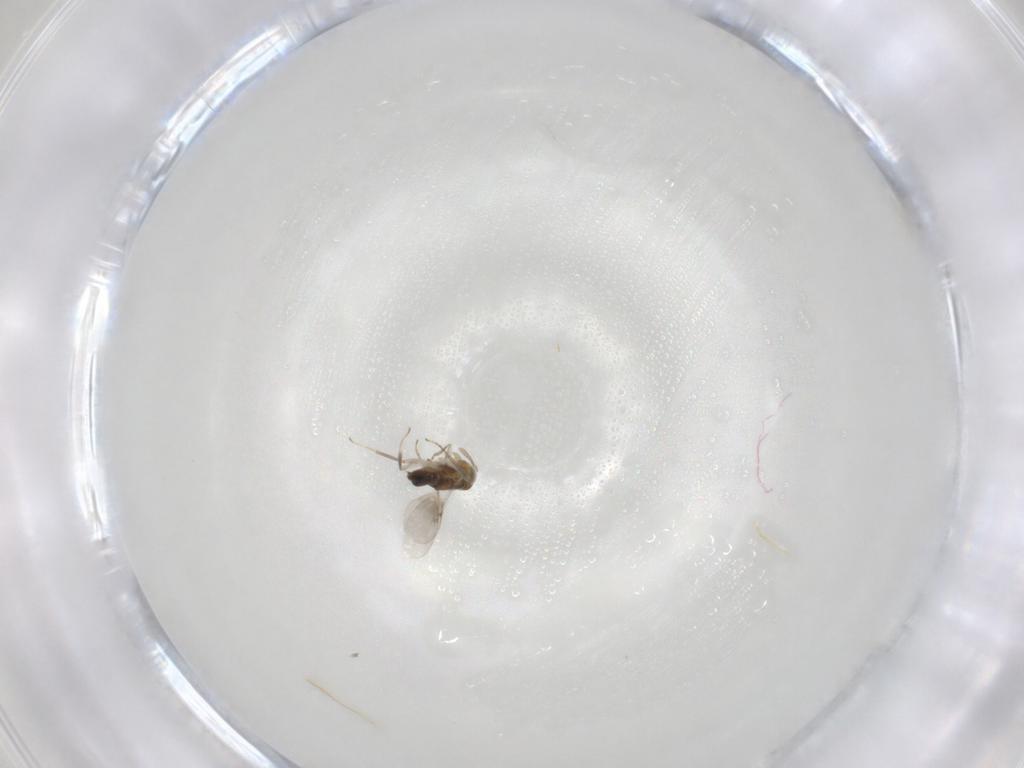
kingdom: Animalia
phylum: Arthropoda
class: Insecta
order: Hymenoptera
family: Encyrtidae
